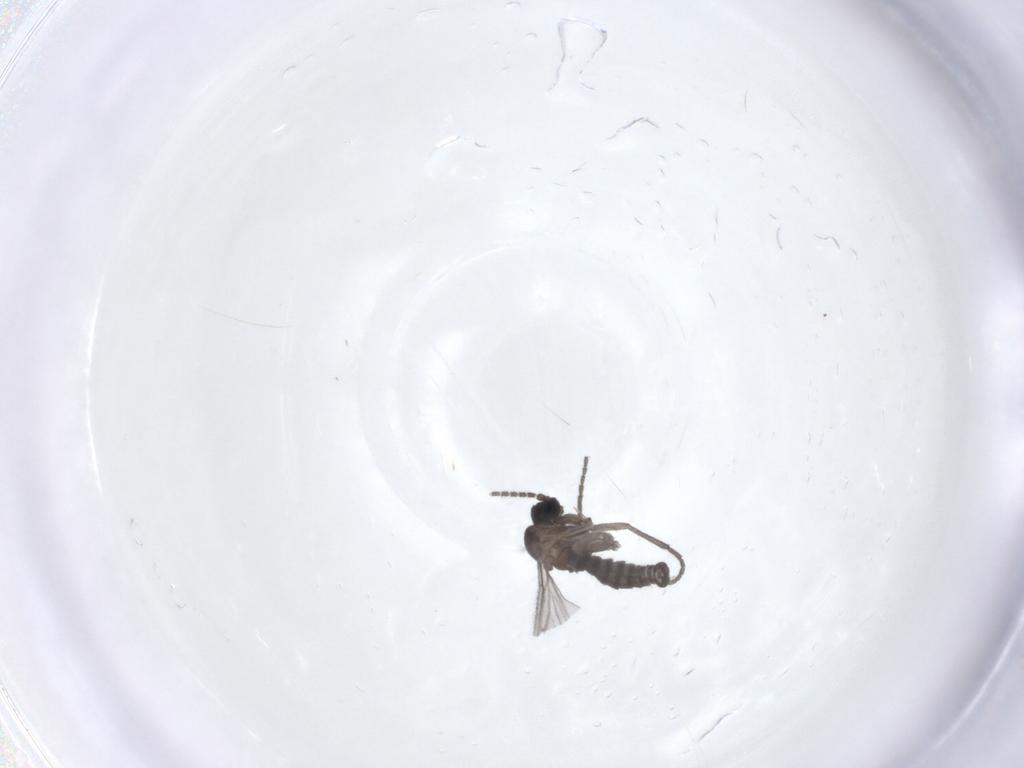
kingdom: Animalia
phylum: Arthropoda
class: Insecta
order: Diptera
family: Sciaridae
